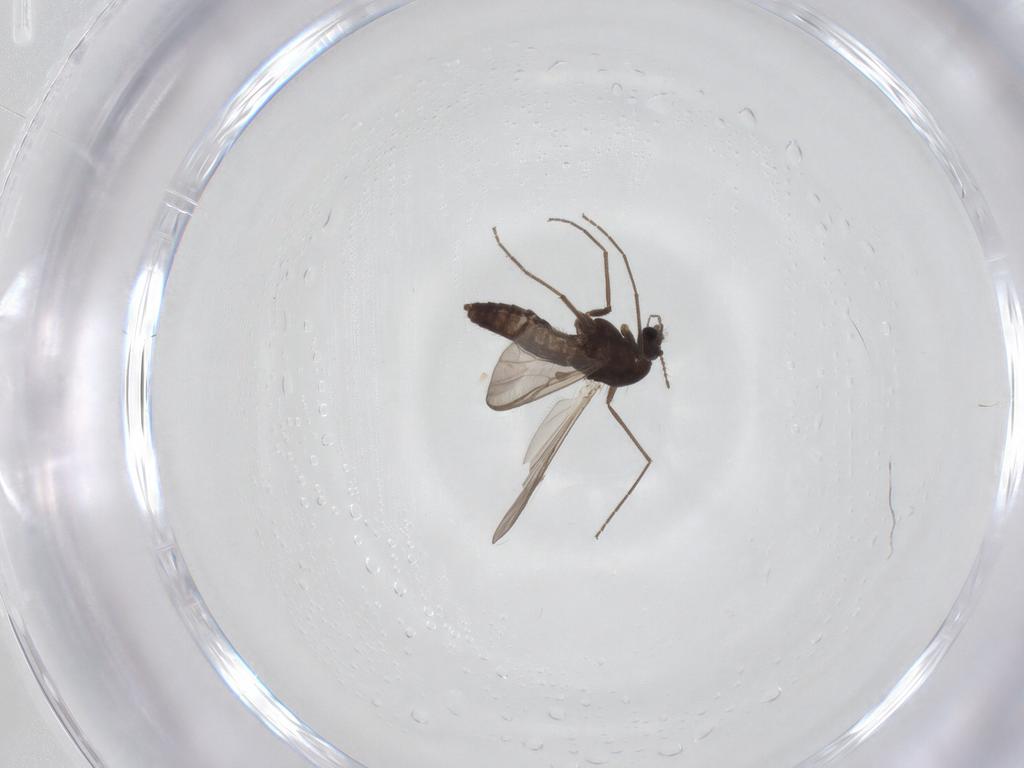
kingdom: Animalia
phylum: Arthropoda
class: Insecta
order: Diptera
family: Chironomidae
